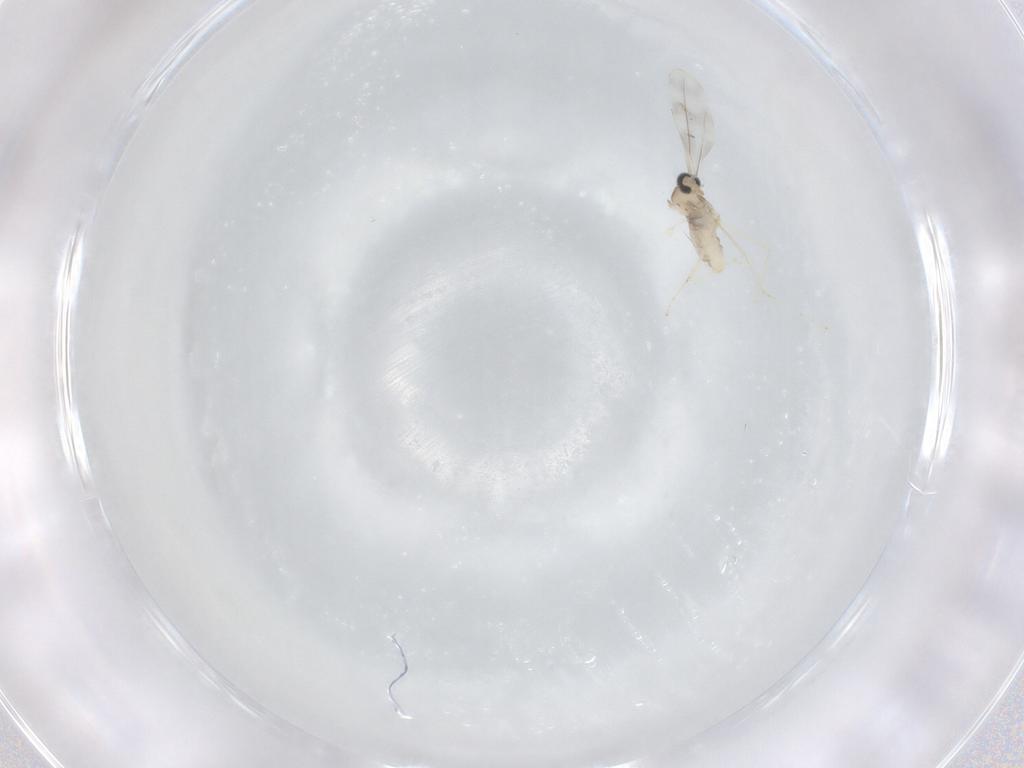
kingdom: Animalia
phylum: Arthropoda
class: Insecta
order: Diptera
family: Cecidomyiidae
